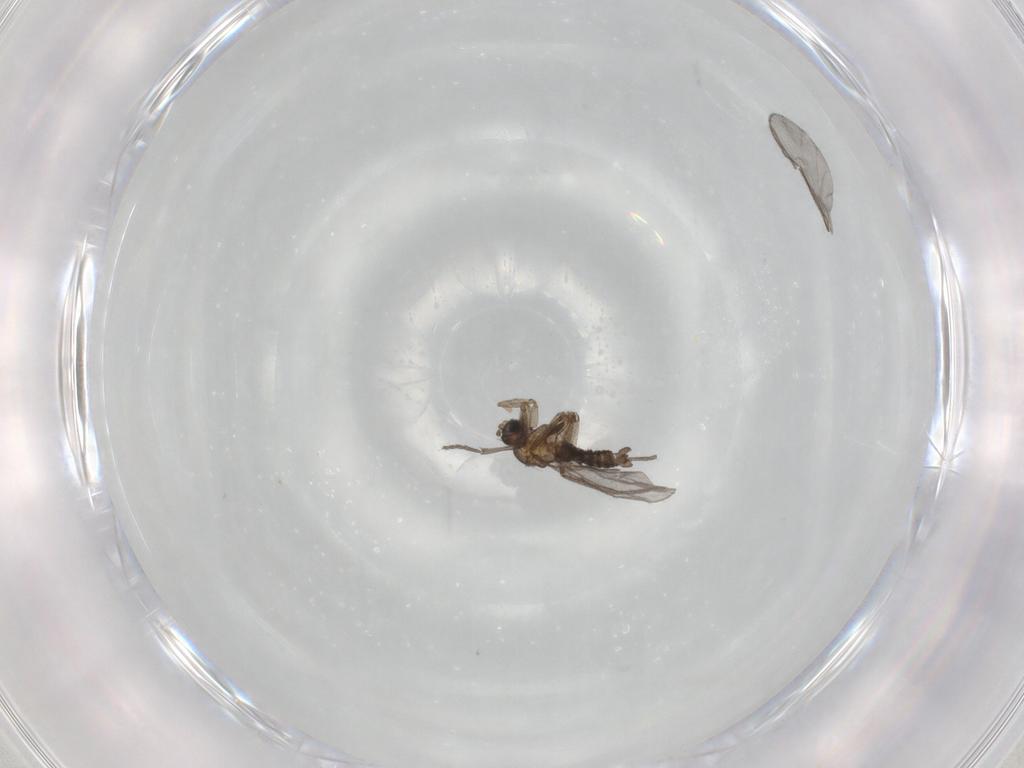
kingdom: Animalia
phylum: Arthropoda
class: Insecta
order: Diptera
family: Sciaridae
